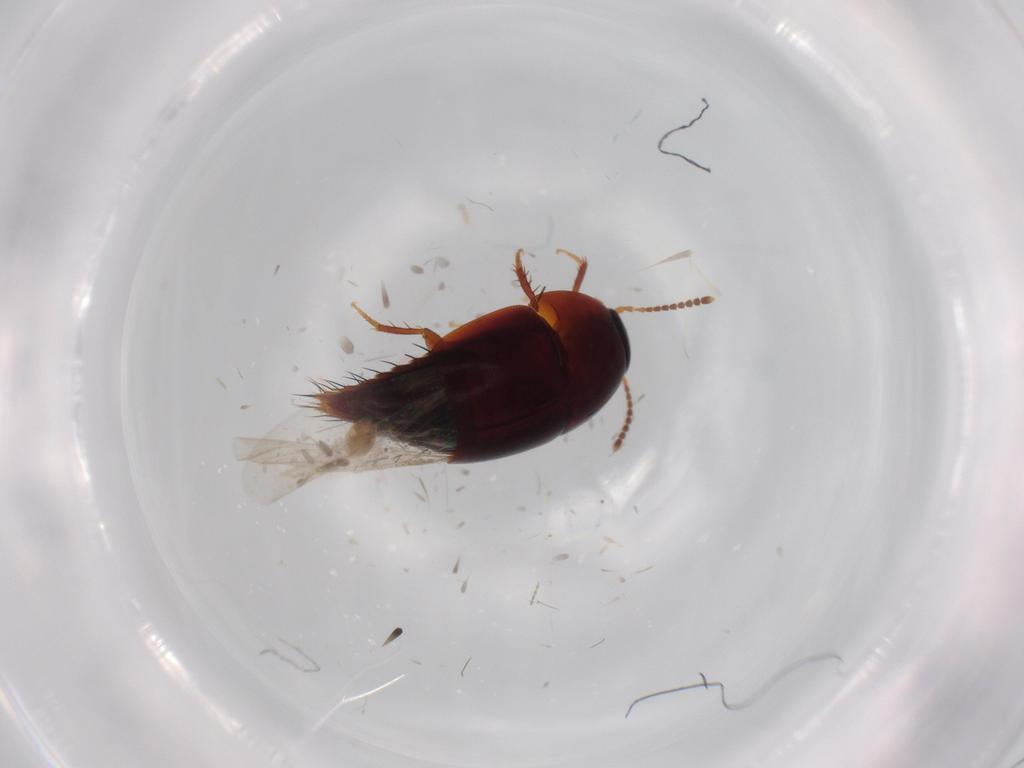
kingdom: Animalia
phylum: Arthropoda
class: Insecta
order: Coleoptera
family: Staphylinidae
